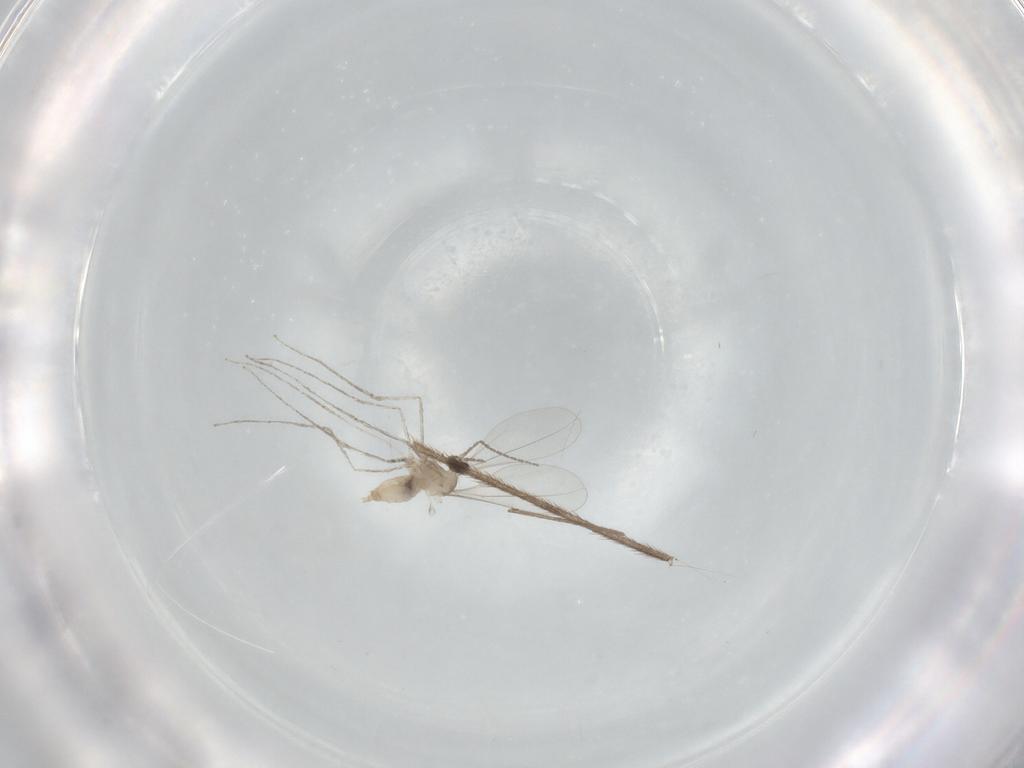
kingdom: Animalia
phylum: Arthropoda
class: Insecta
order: Diptera
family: Cecidomyiidae
